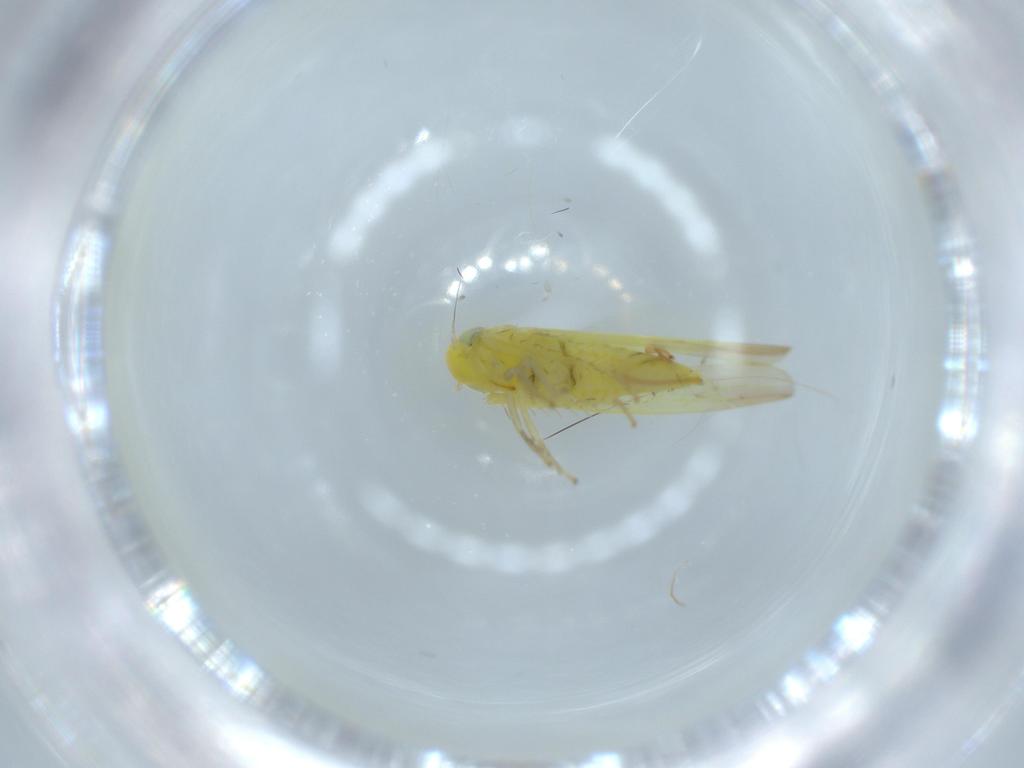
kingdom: Animalia
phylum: Arthropoda
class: Insecta
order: Hemiptera
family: Cicadellidae
